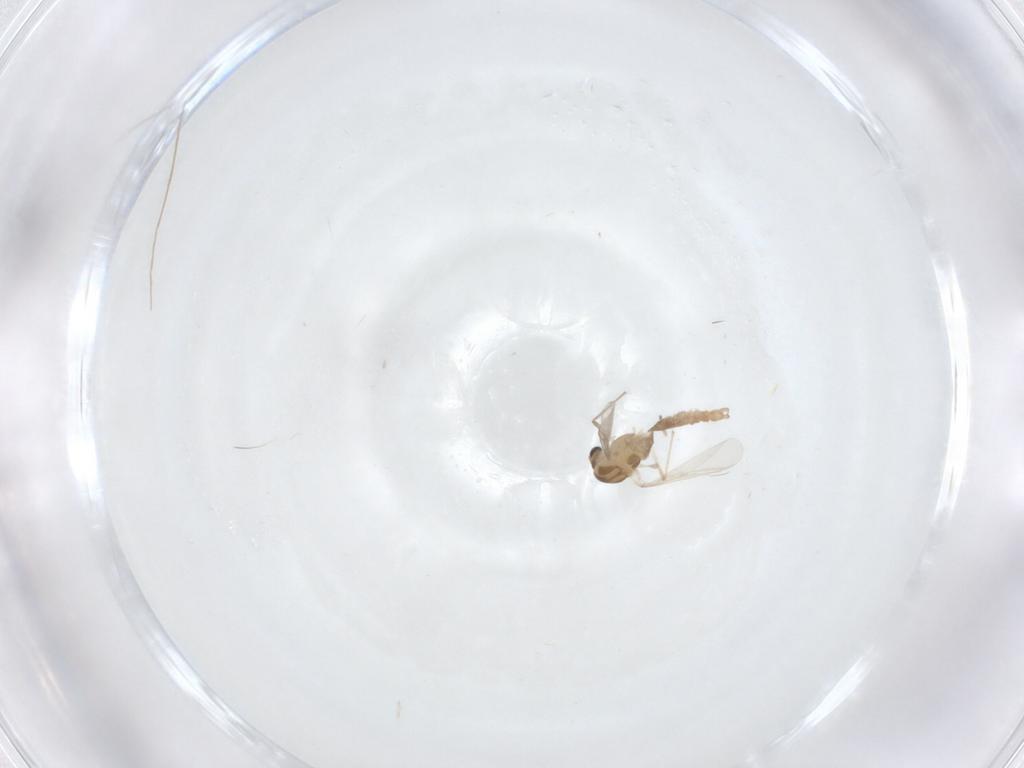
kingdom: Animalia
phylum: Arthropoda
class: Insecta
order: Diptera
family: Chironomidae
